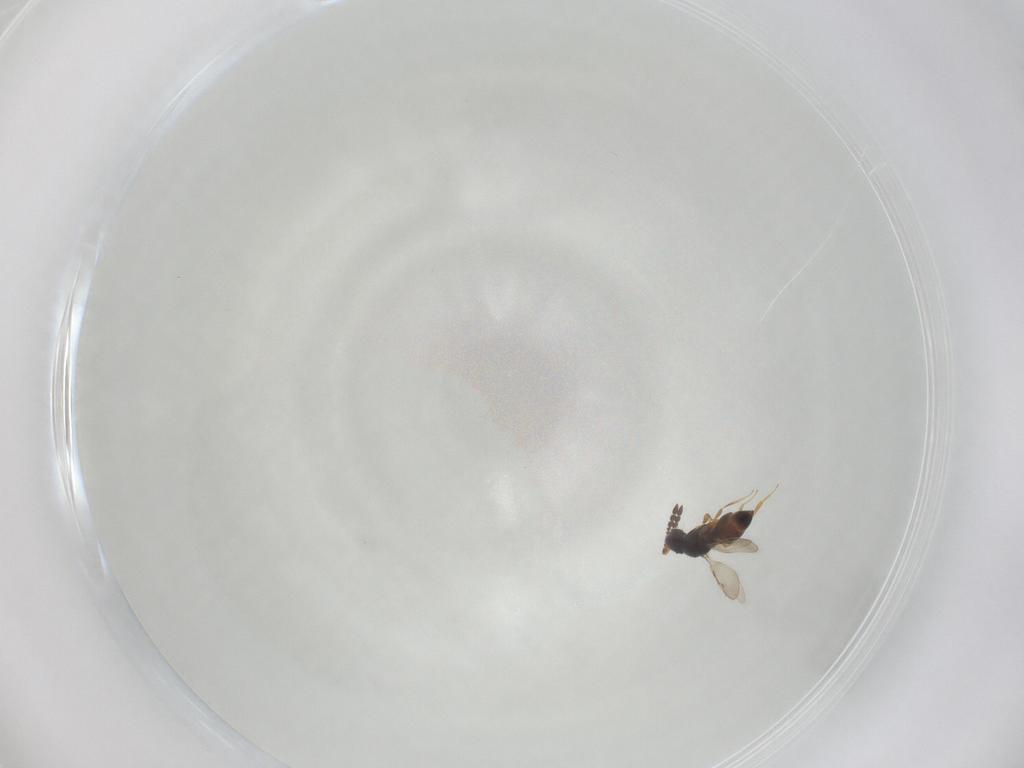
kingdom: Animalia
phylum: Arthropoda
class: Insecta
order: Hymenoptera
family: Ceraphronidae
